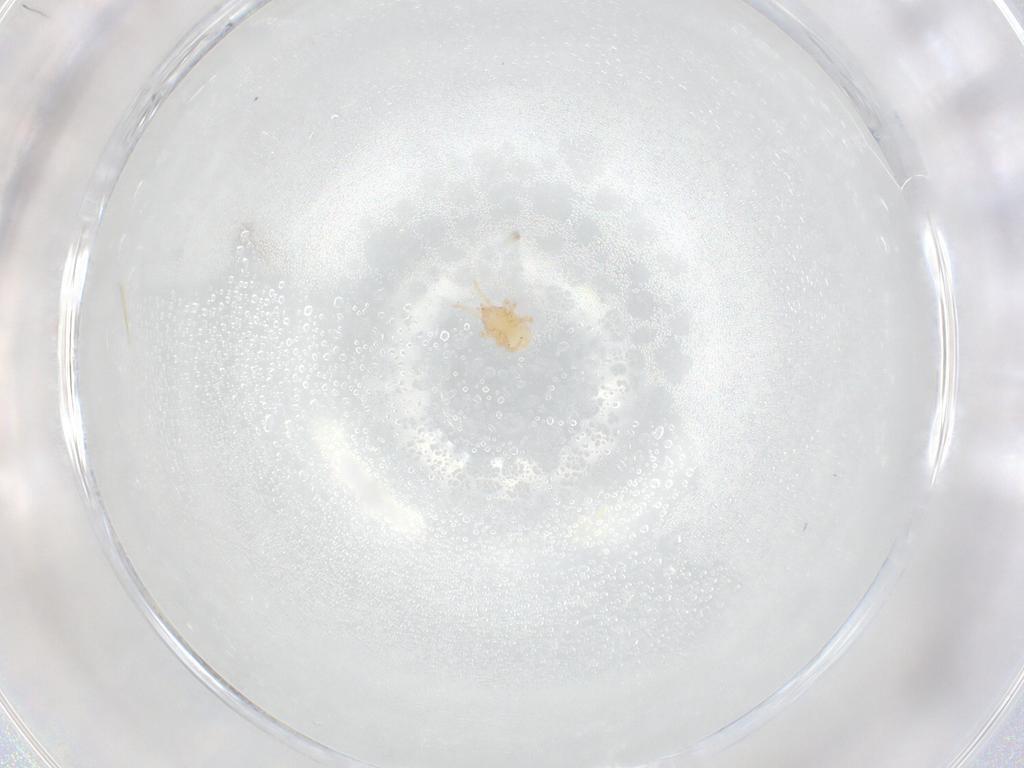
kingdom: Animalia
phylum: Arthropoda
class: Arachnida
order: Mesostigmata
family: Melicharidae
